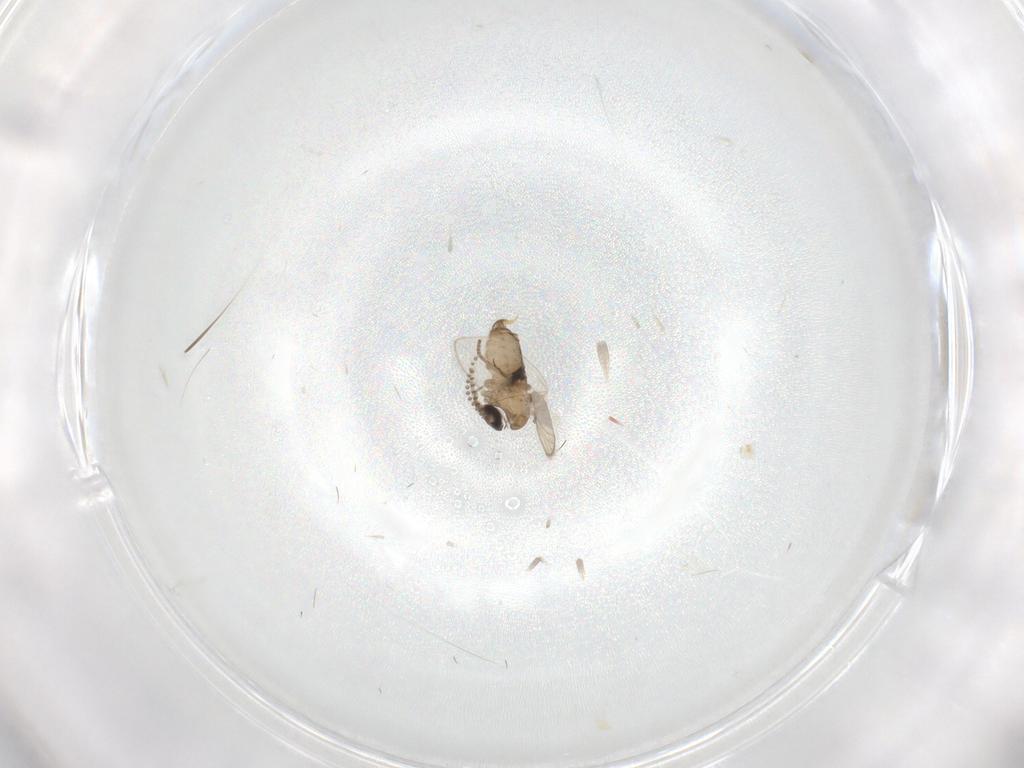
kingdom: Animalia
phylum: Arthropoda
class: Insecta
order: Diptera
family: Psychodidae
